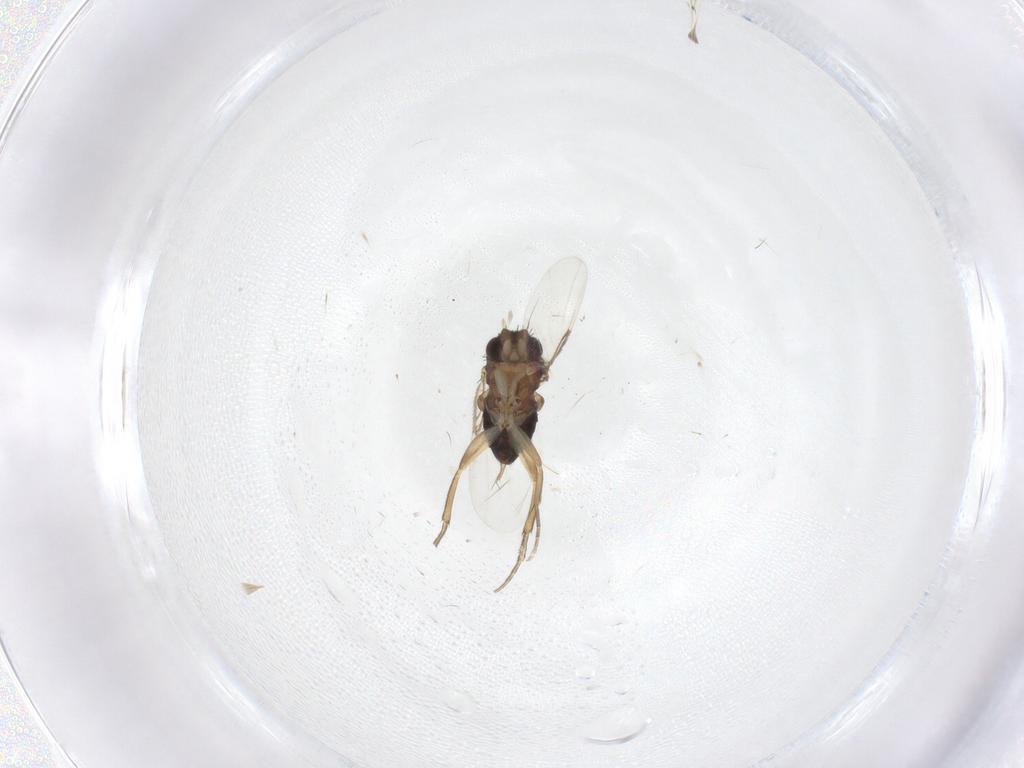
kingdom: Animalia
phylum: Arthropoda
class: Insecta
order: Diptera
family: Phoridae
